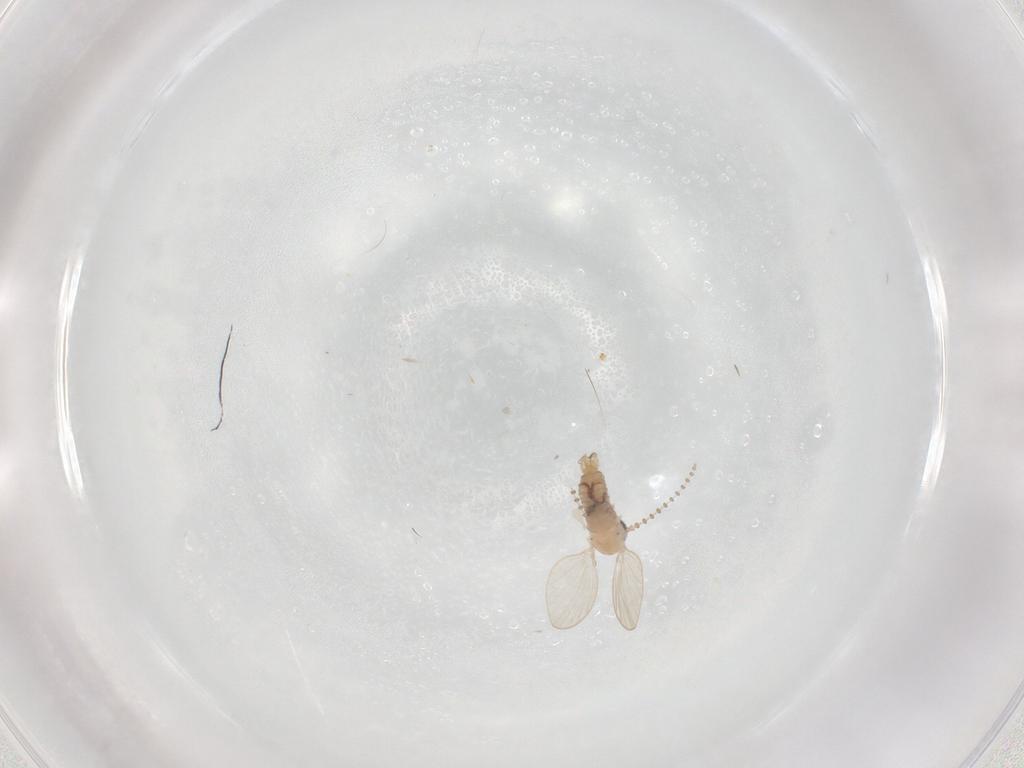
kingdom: Animalia
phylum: Arthropoda
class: Insecta
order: Diptera
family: Psychodidae
